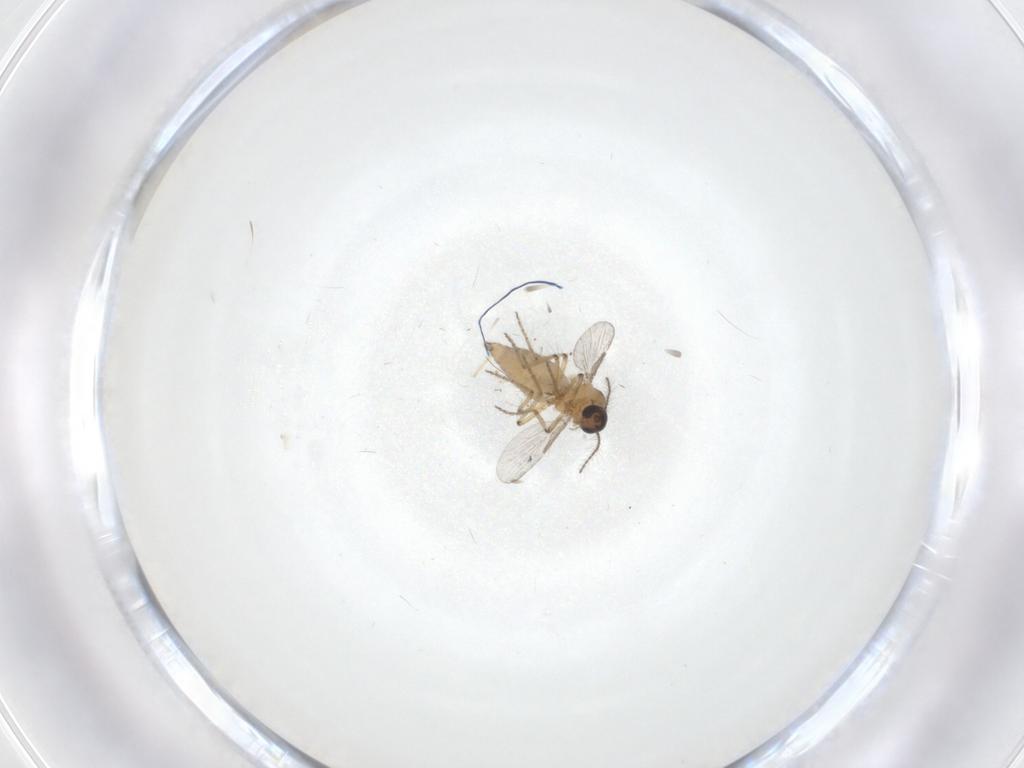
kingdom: Animalia
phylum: Arthropoda
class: Insecta
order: Diptera
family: Ceratopogonidae
